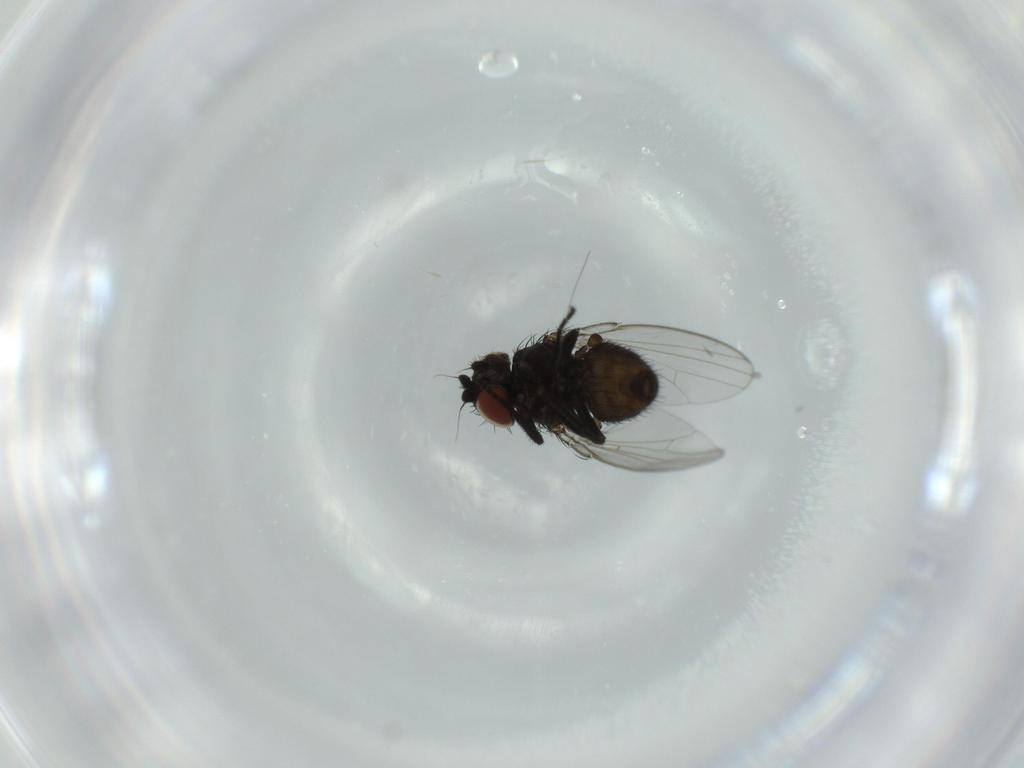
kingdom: Animalia
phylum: Arthropoda
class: Insecta
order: Diptera
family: Milichiidae
